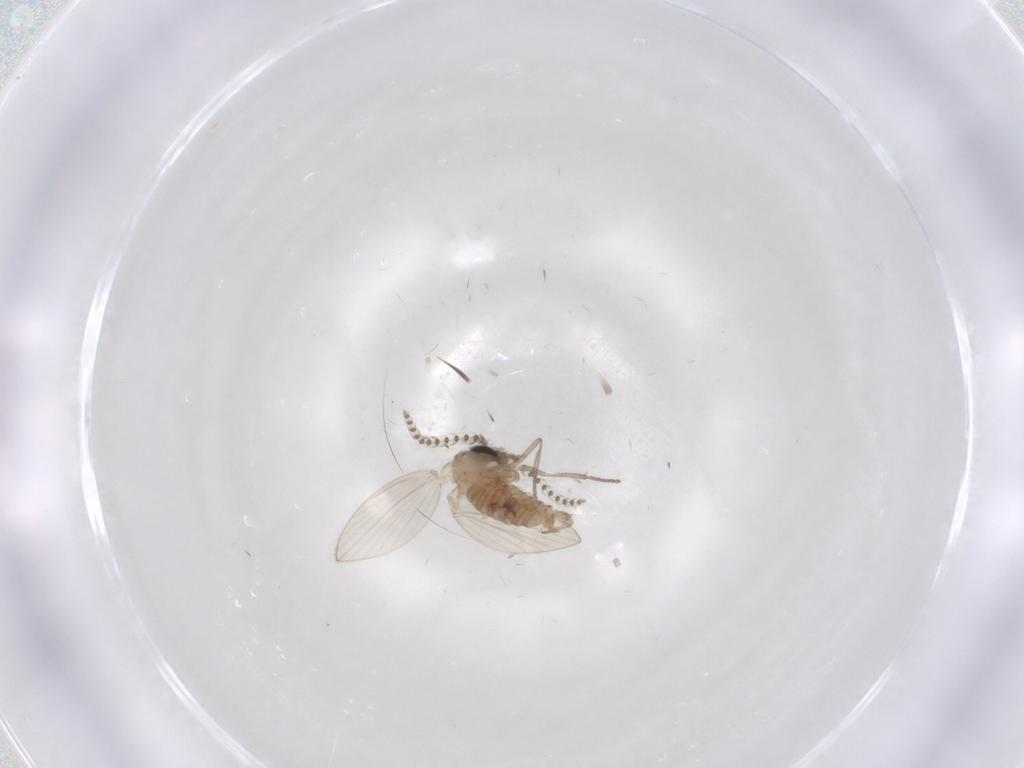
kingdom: Animalia
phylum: Arthropoda
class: Insecta
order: Diptera
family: Psychodidae
